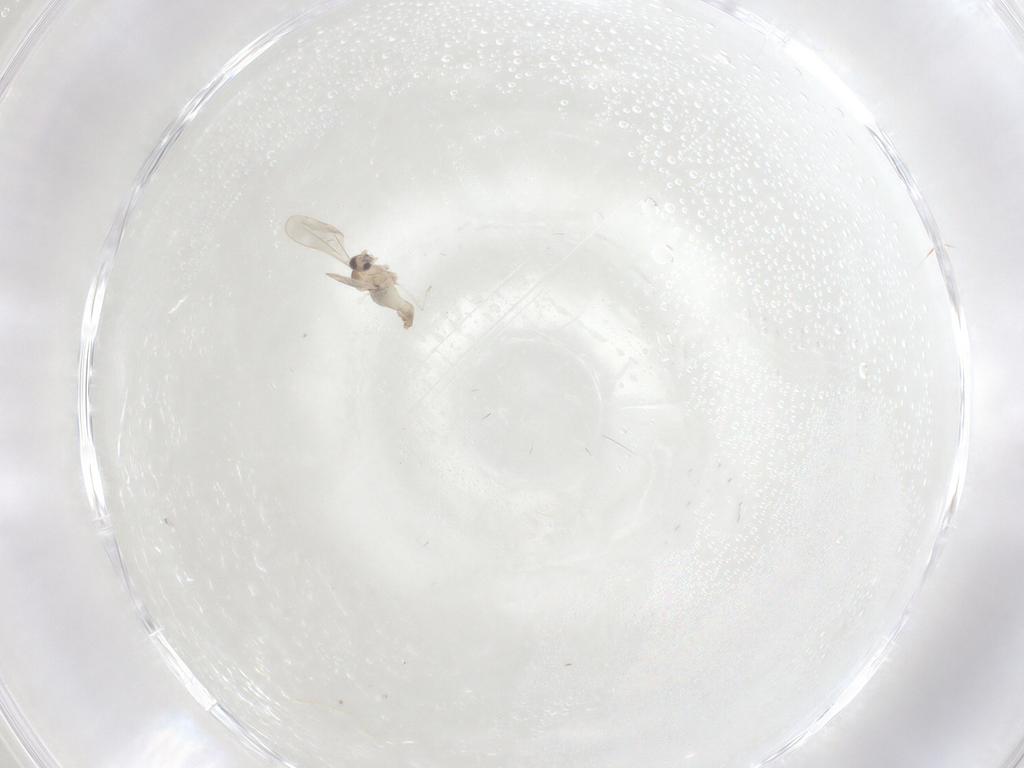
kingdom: Animalia
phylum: Arthropoda
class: Insecta
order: Diptera
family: Cecidomyiidae
